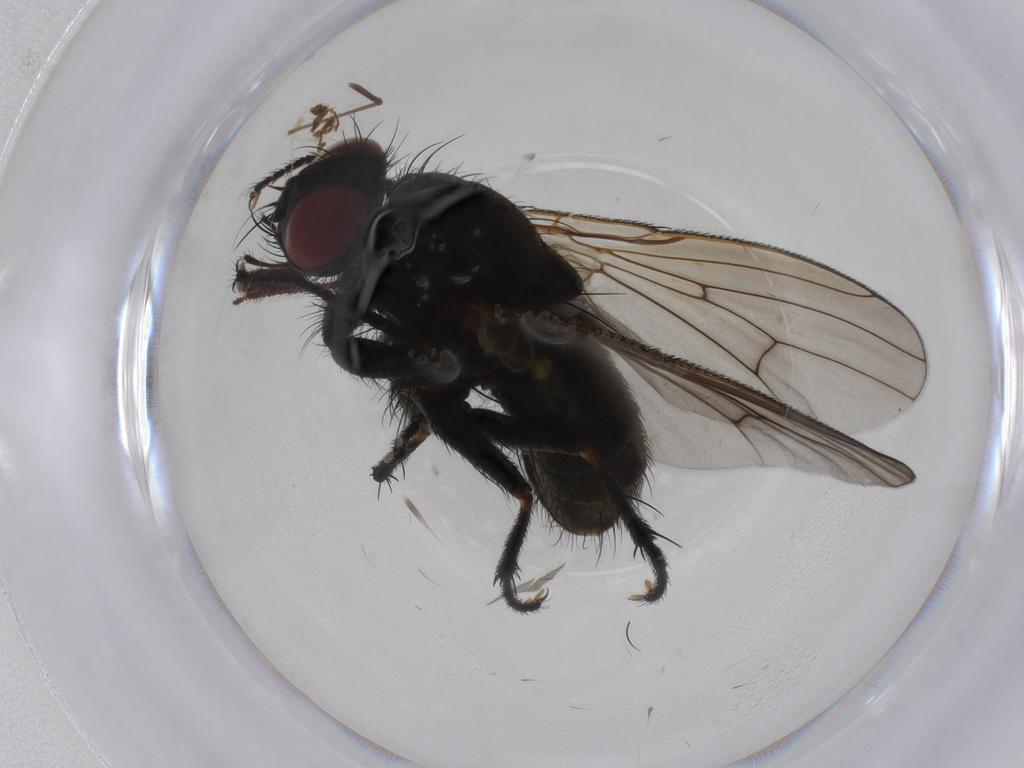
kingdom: Animalia
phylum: Arthropoda
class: Insecta
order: Diptera
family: Muscidae
